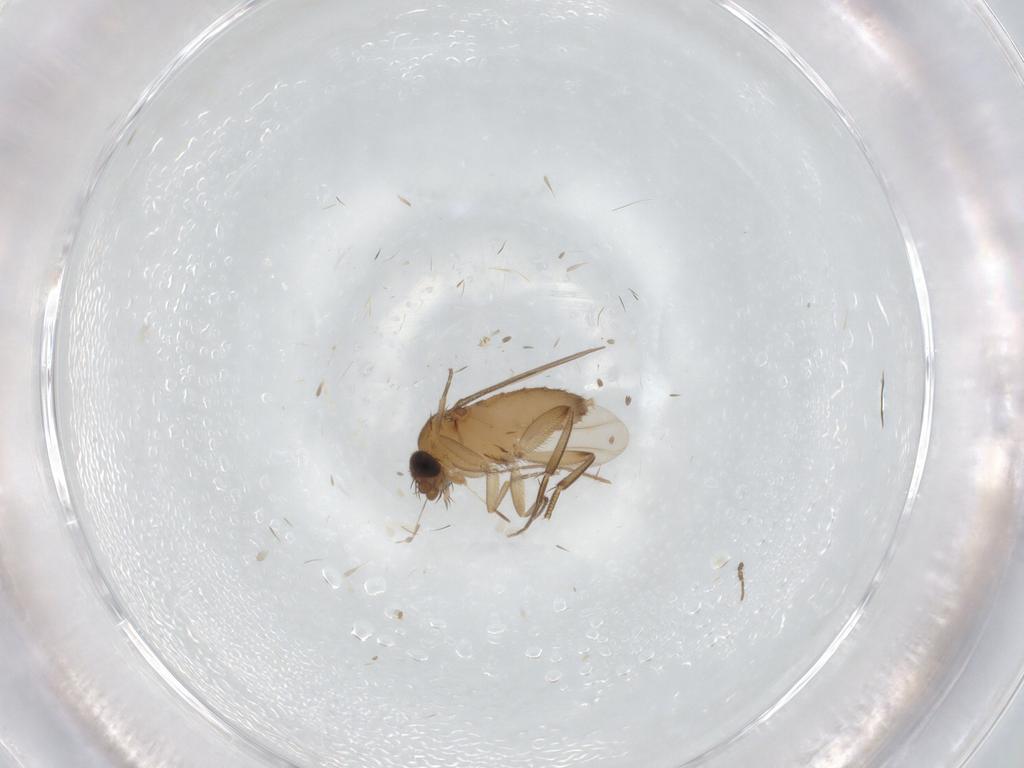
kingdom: Animalia
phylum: Arthropoda
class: Insecta
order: Diptera
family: Phoridae
